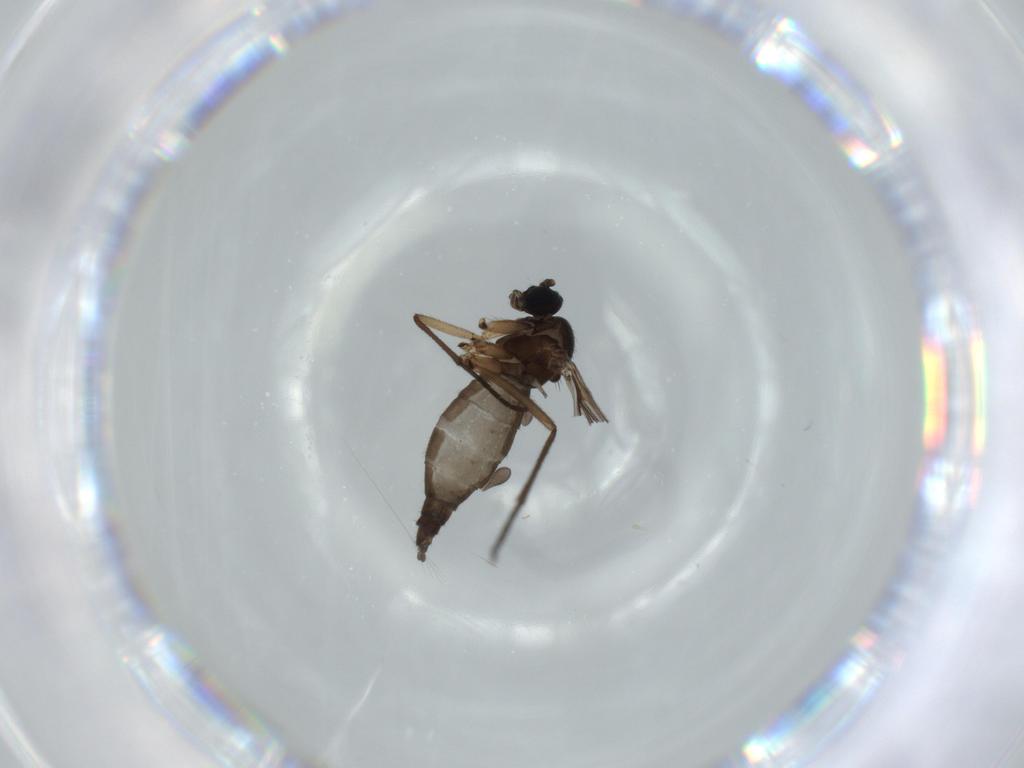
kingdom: Animalia
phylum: Arthropoda
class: Insecta
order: Diptera
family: Sciaridae
